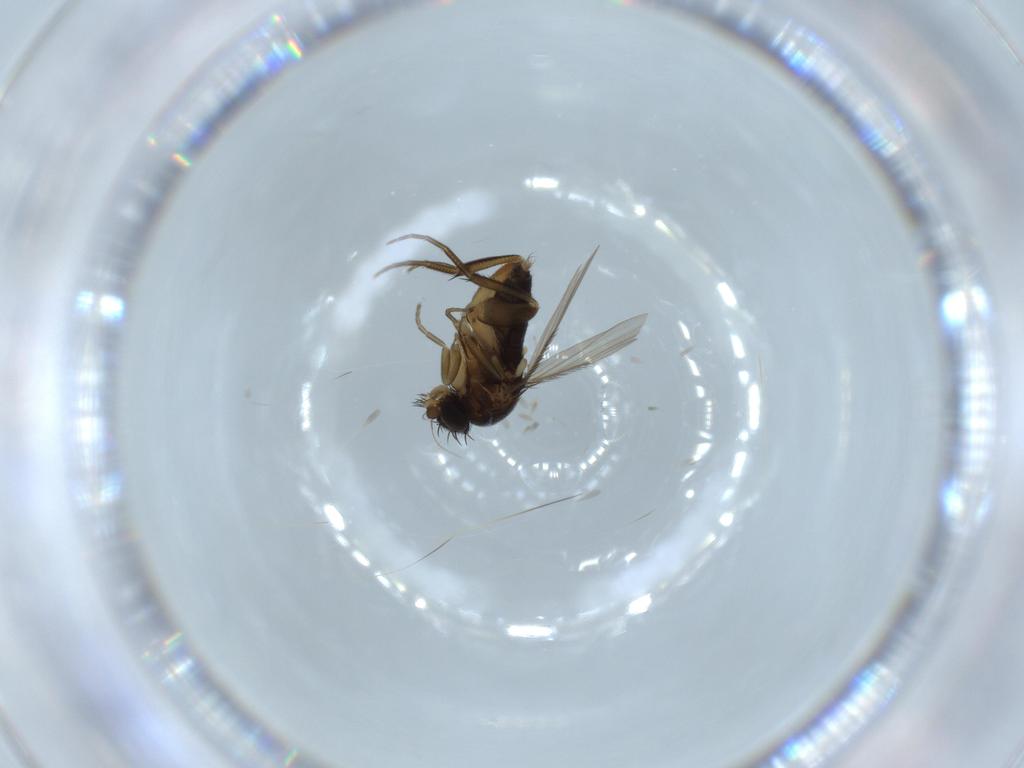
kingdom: Animalia
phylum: Arthropoda
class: Insecta
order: Diptera
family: Phoridae
